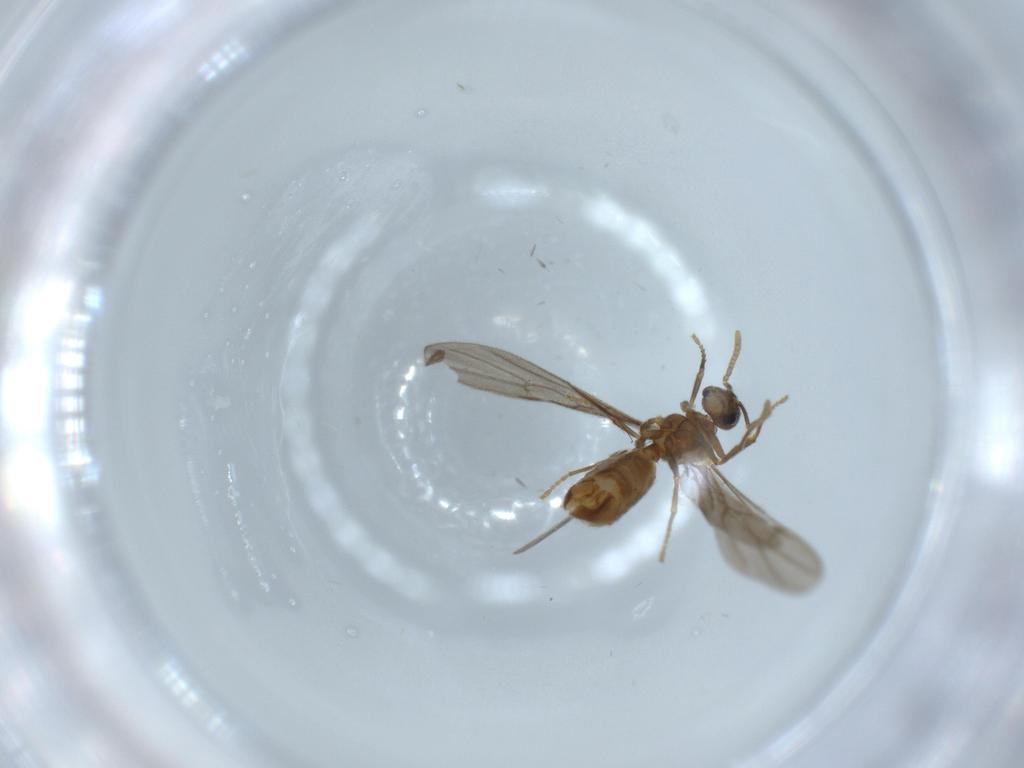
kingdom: Animalia
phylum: Arthropoda
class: Insecta
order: Hymenoptera
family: Formicidae
